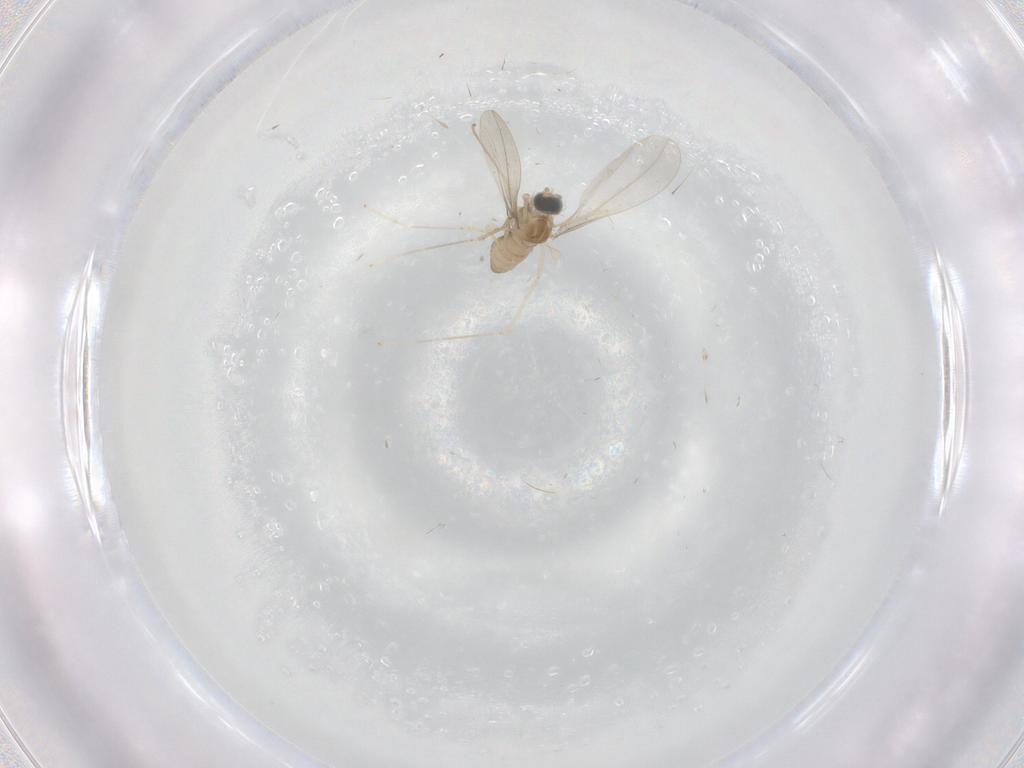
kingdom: Animalia
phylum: Arthropoda
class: Insecta
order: Diptera
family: Cecidomyiidae
